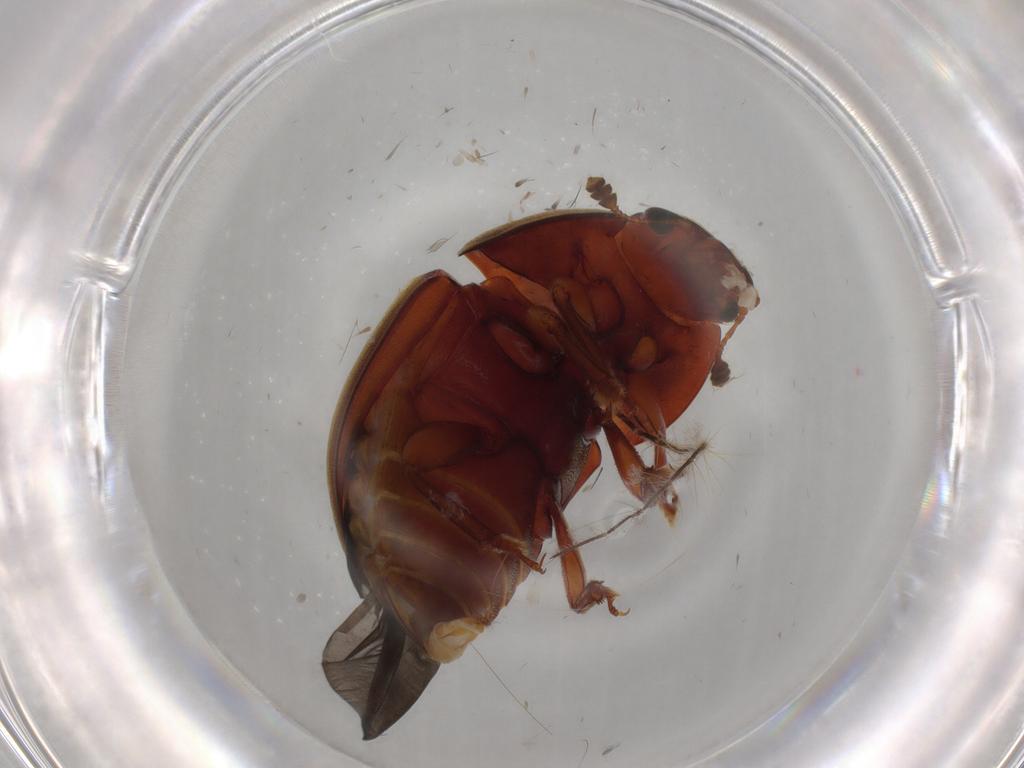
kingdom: Animalia
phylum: Arthropoda
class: Insecta
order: Coleoptera
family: Nitidulidae
